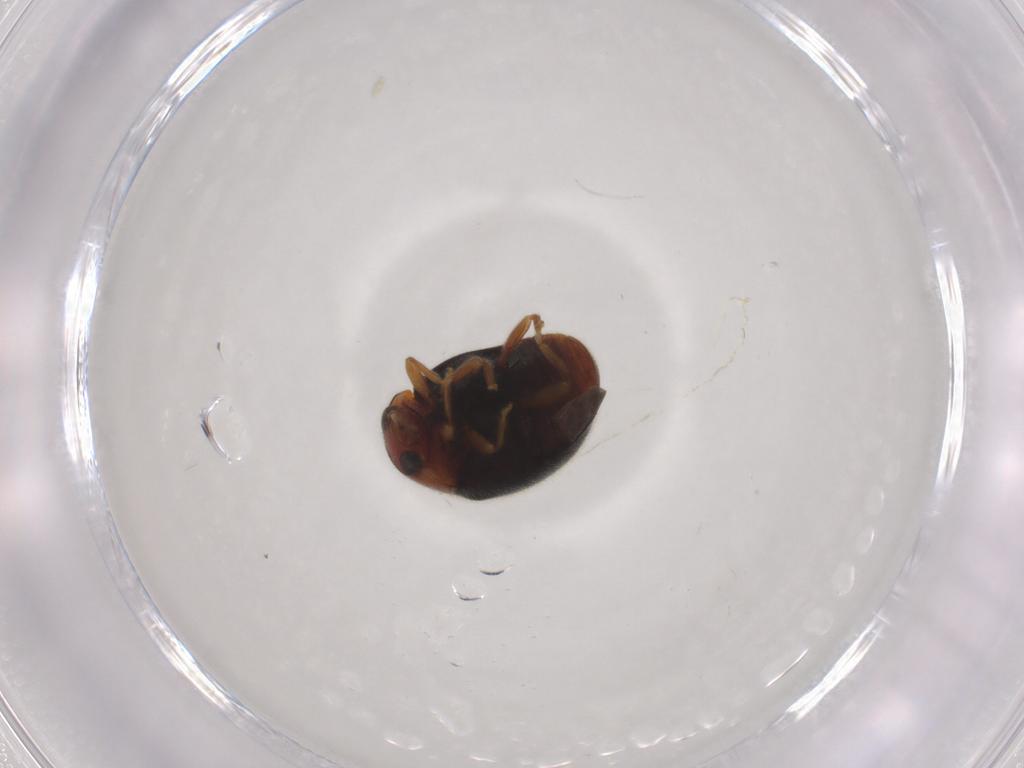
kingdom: Animalia
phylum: Arthropoda
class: Insecta
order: Coleoptera
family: Coccinellidae
